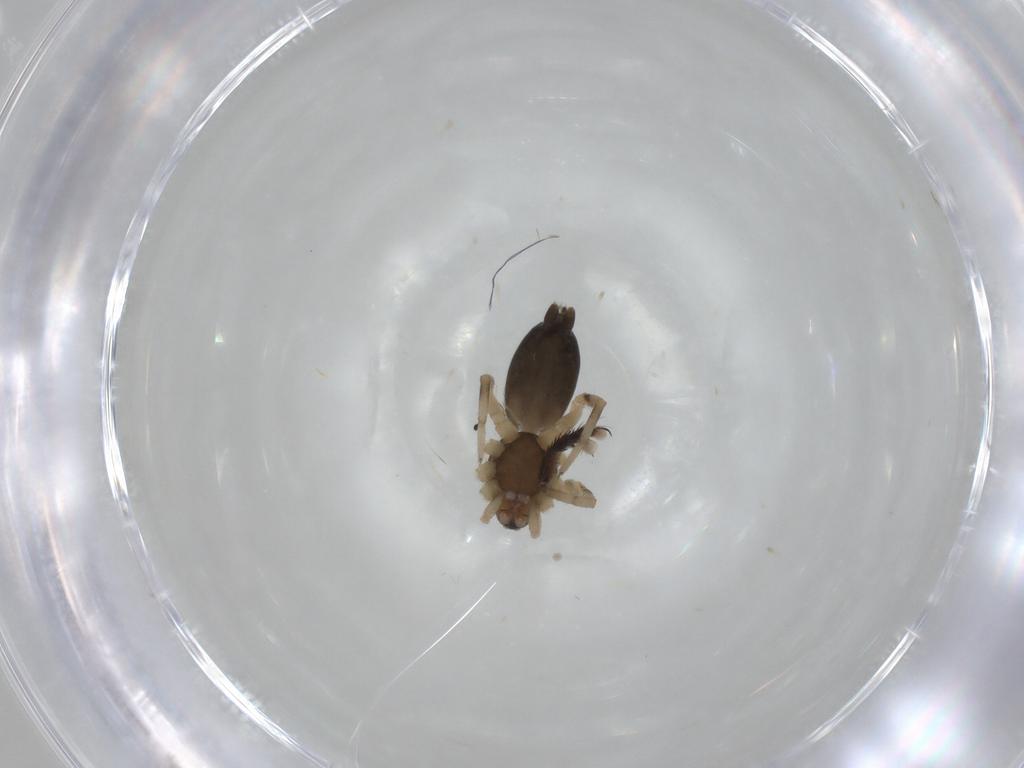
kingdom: Animalia
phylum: Arthropoda
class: Arachnida
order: Araneae
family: Gnaphosidae
